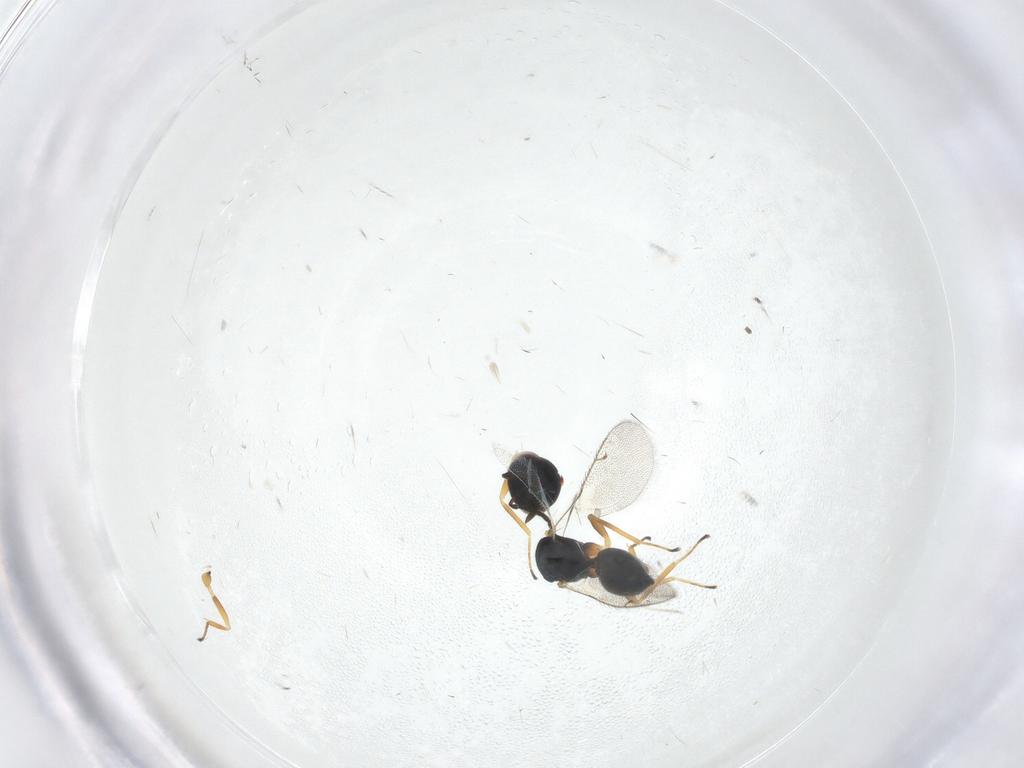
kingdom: Animalia
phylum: Arthropoda
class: Insecta
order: Hymenoptera
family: Pteromalidae
